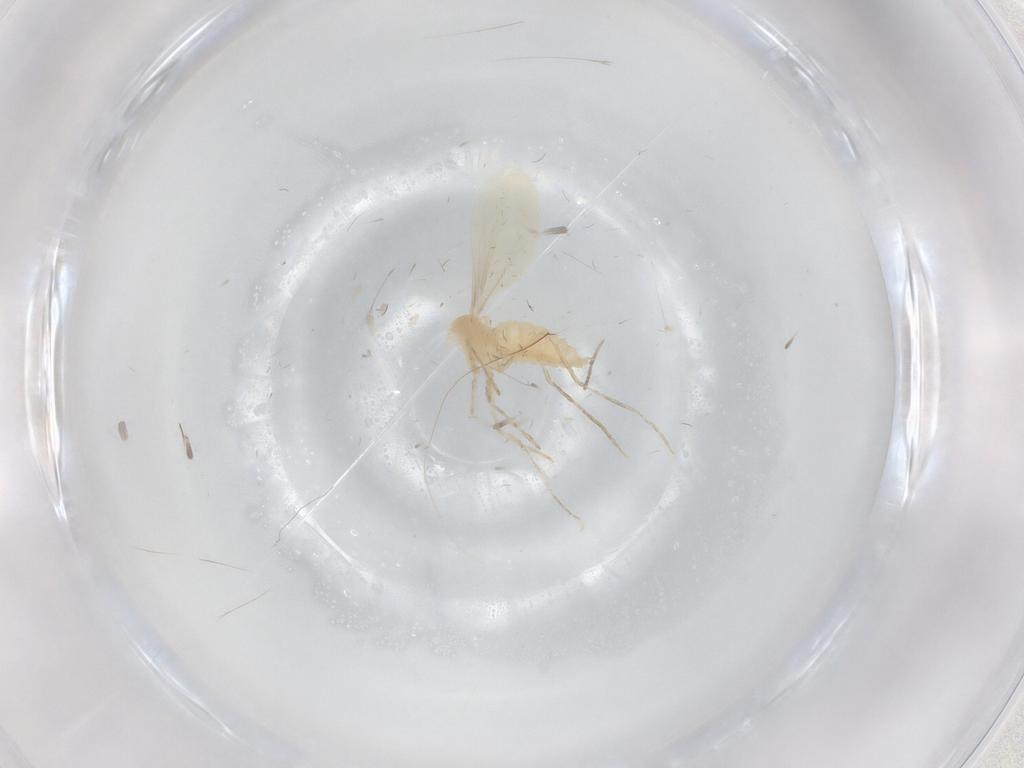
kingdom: Animalia
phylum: Arthropoda
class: Insecta
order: Diptera
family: Cecidomyiidae
